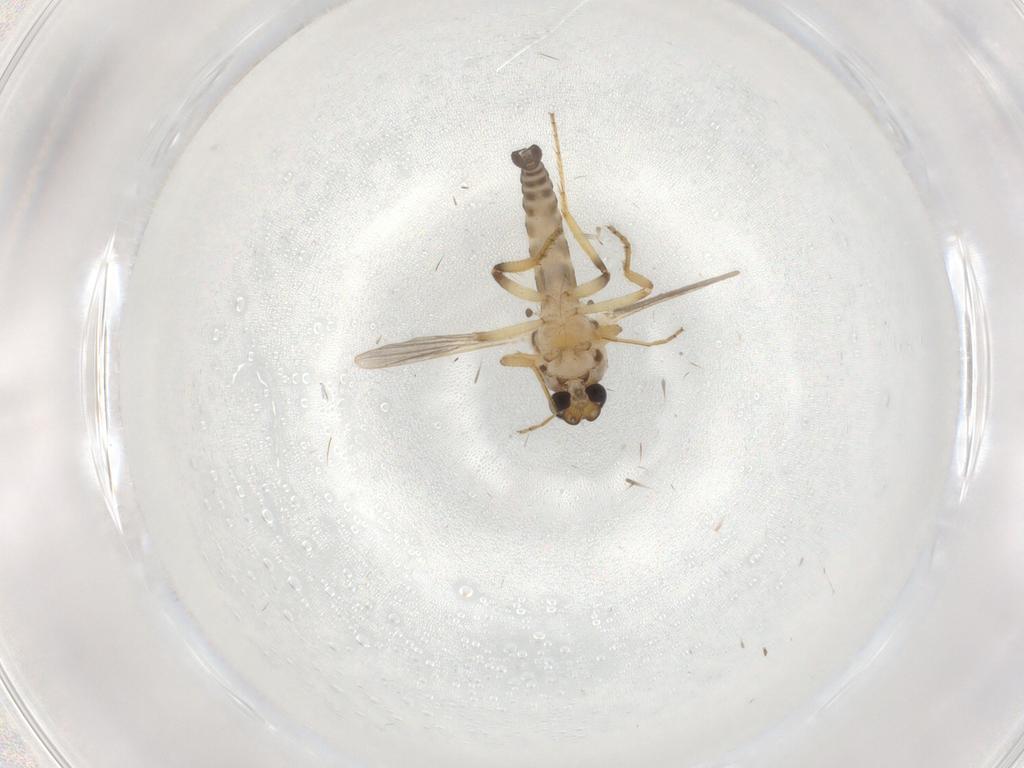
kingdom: Animalia
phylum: Arthropoda
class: Insecta
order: Diptera
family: Ceratopogonidae
